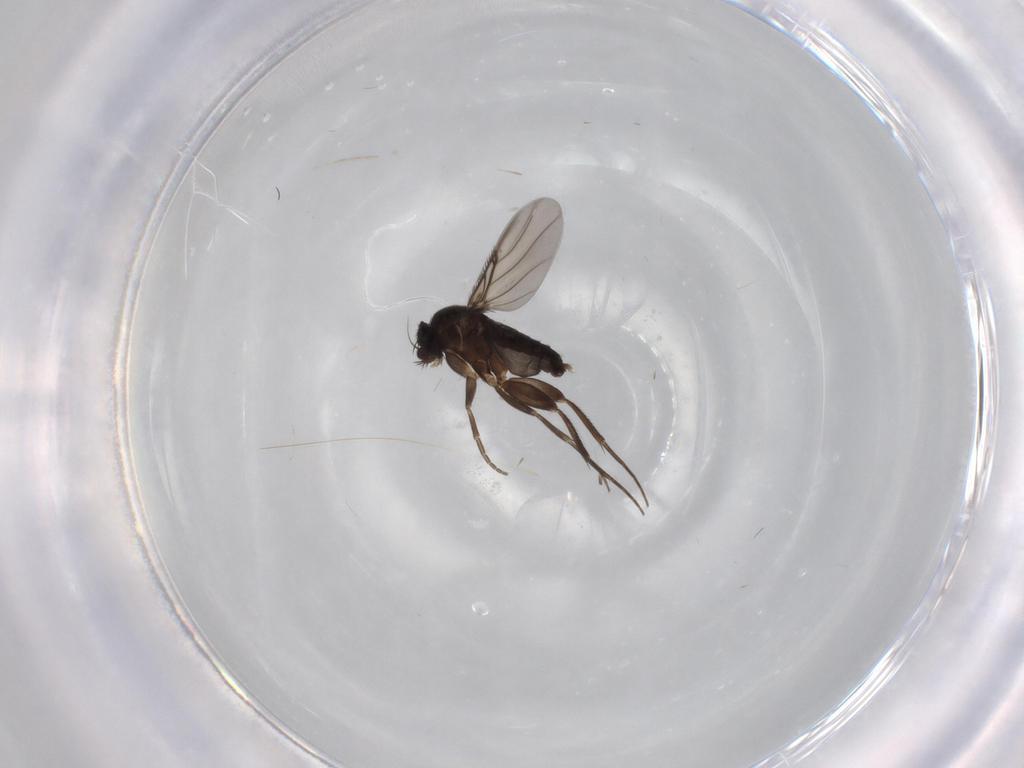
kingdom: Animalia
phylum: Arthropoda
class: Insecta
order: Diptera
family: Phoridae
